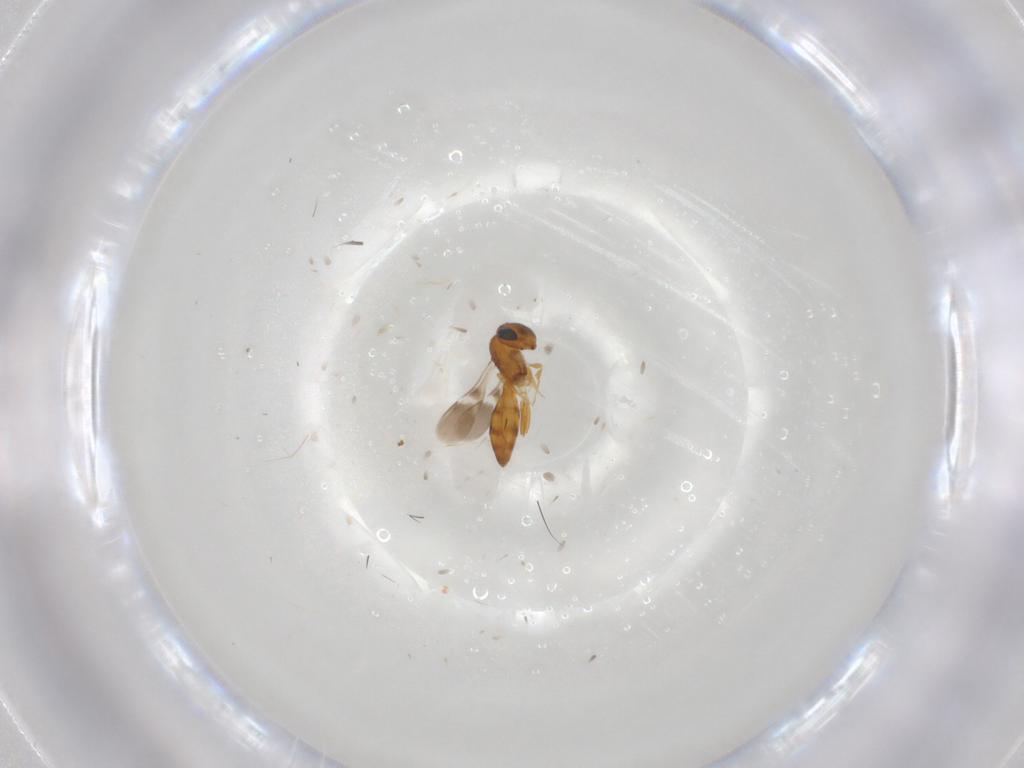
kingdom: Animalia
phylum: Arthropoda
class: Insecta
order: Hymenoptera
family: Scelionidae
